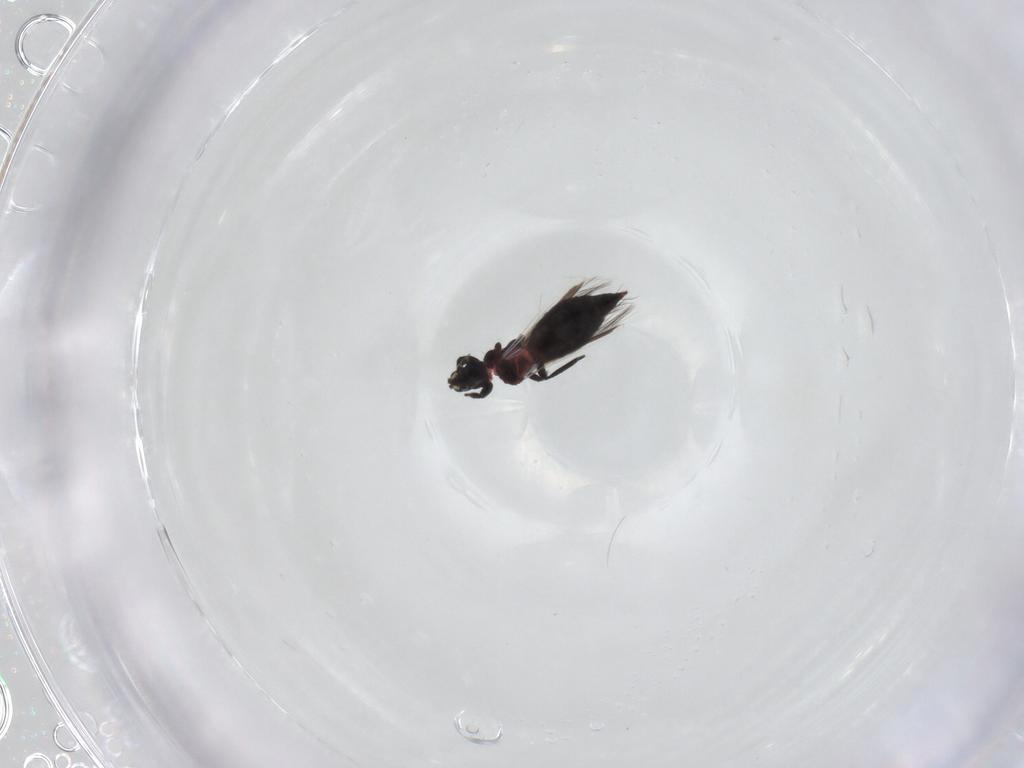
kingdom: Animalia
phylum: Arthropoda
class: Insecta
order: Thysanoptera
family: Aeolothripidae
